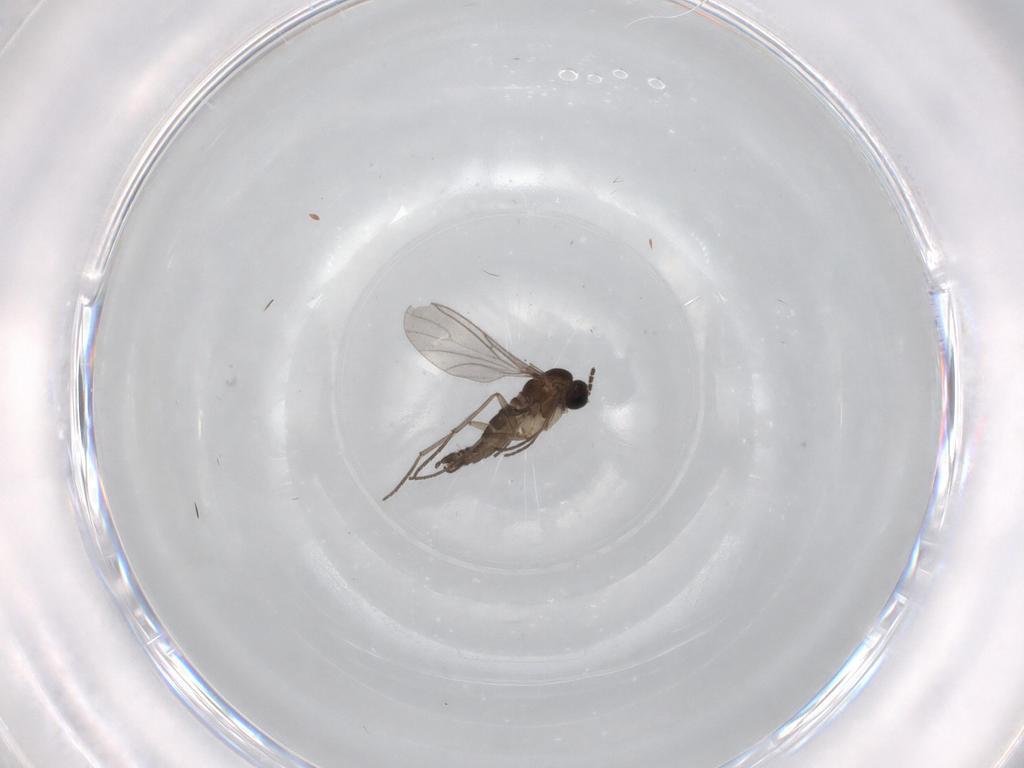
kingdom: Animalia
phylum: Arthropoda
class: Insecta
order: Diptera
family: Sciaridae
